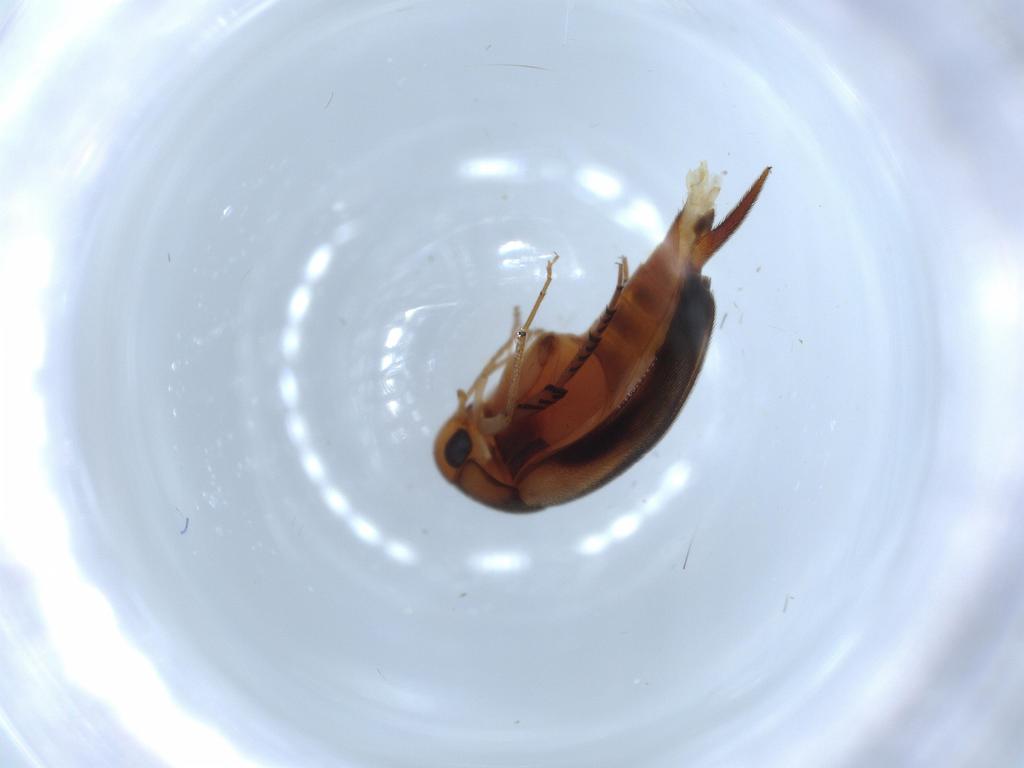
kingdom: Animalia
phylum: Arthropoda
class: Insecta
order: Coleoptera
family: Mordellidae
